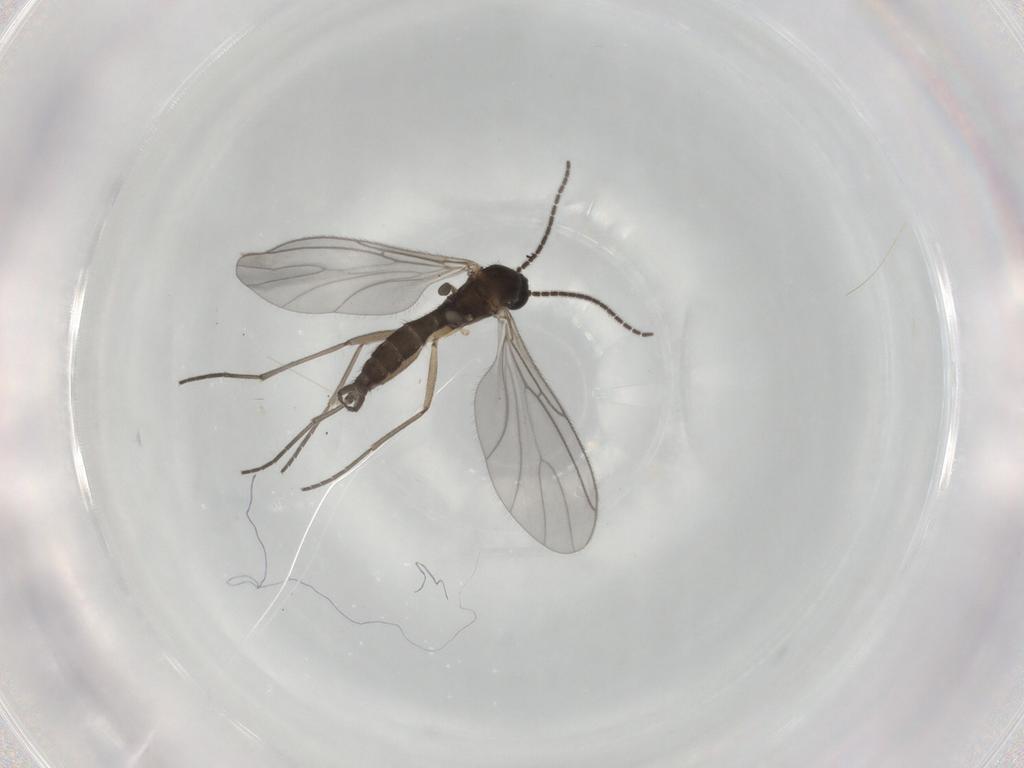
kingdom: Animalia
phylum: Arthropoda
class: Insecta
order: Diptera
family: Sciaridae
